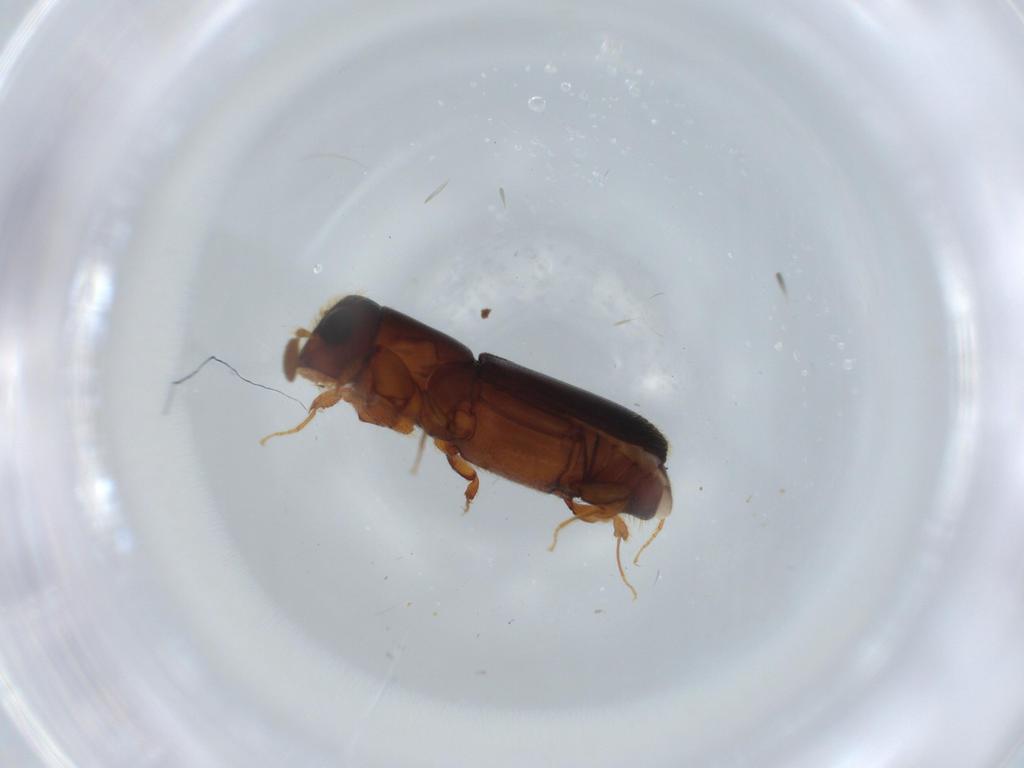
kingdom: Animalia
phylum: Arthropoda
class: Insecta
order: Coleoptera
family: Curculionidae
